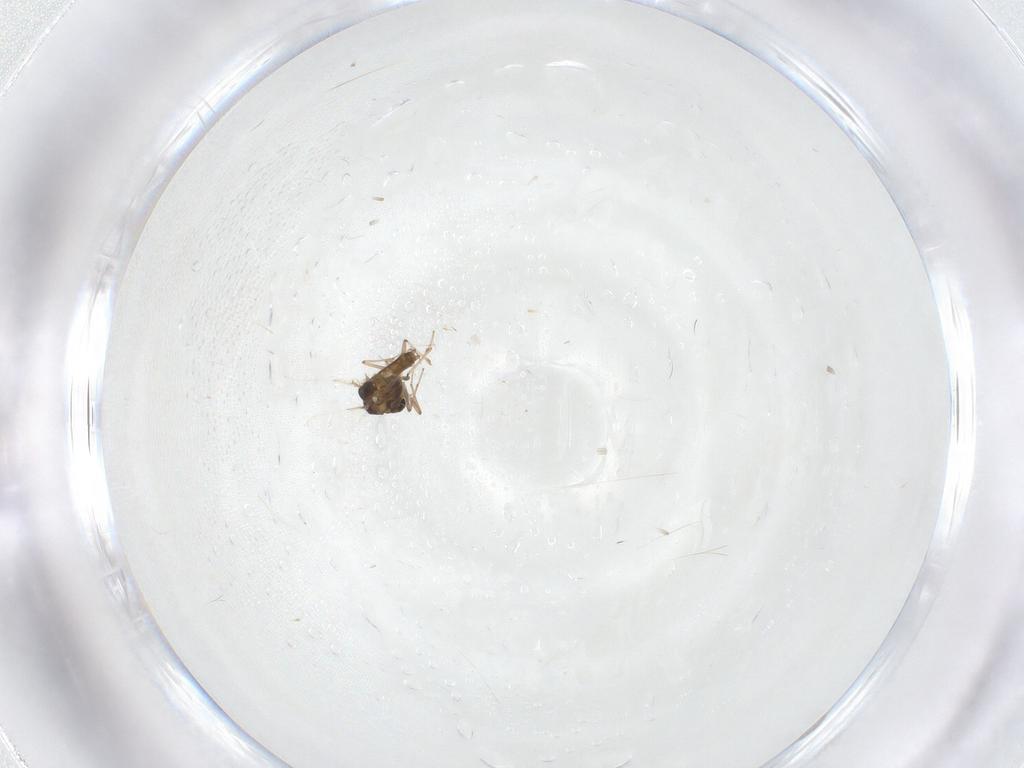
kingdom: Animalia
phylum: Arthropoda
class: Insecta
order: Diptera
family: Chironomidae
